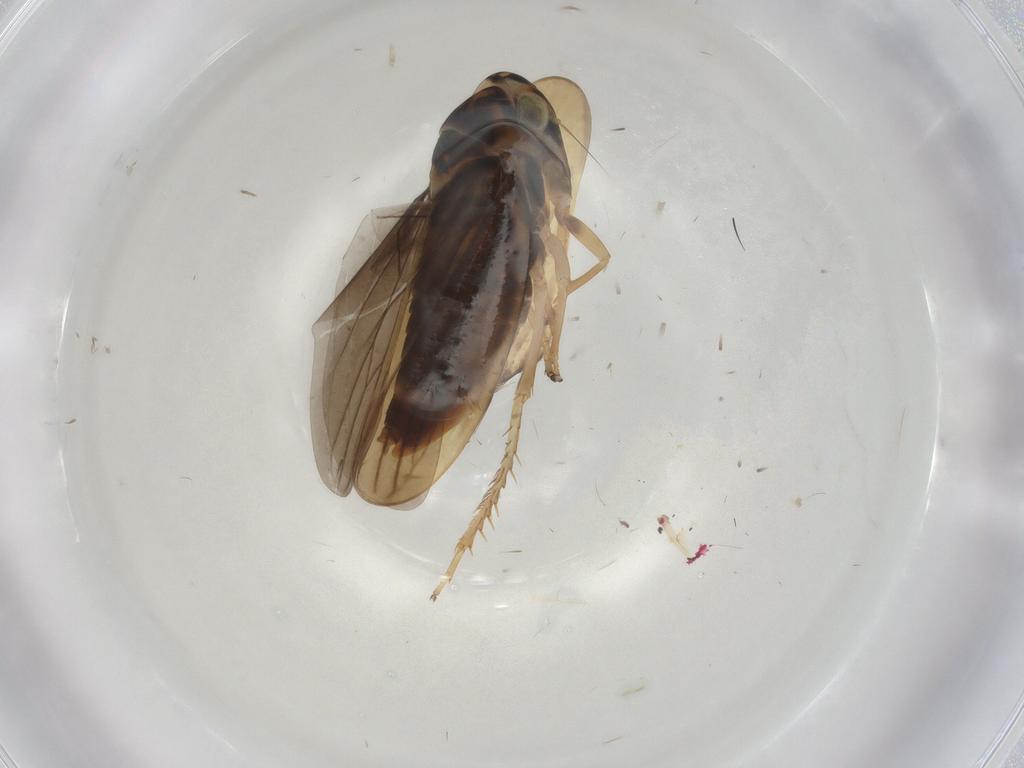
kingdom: Animalia
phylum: Arthropoda
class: Insecta
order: Hemiptera
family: Cicadellidae
